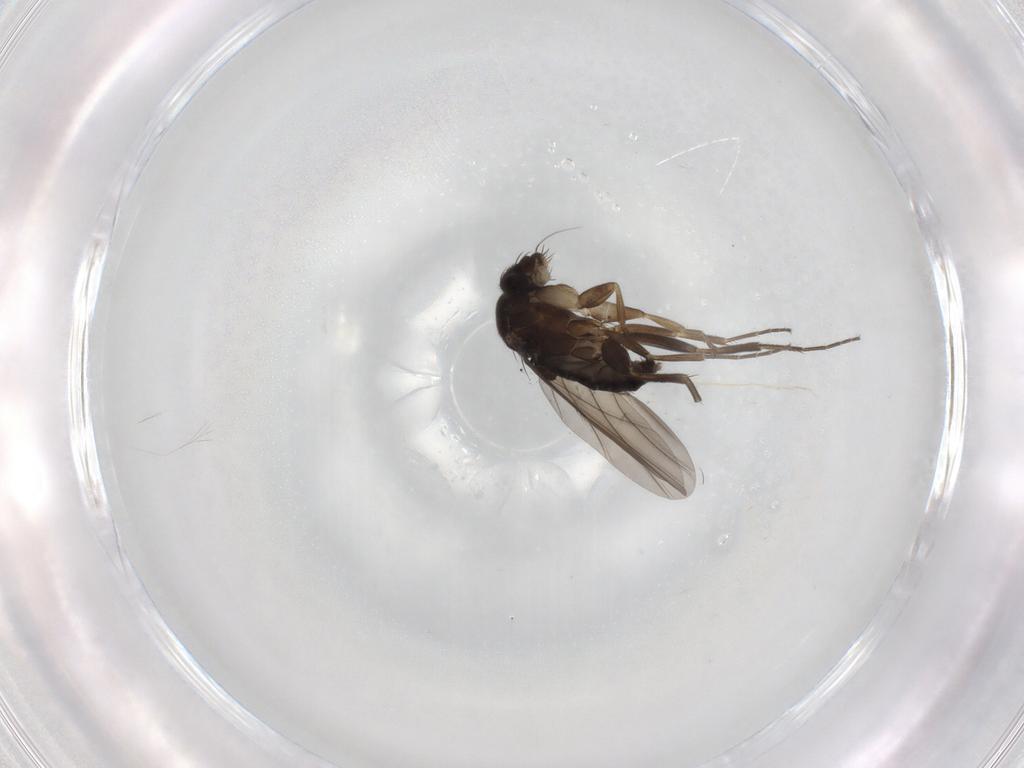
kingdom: Animalia
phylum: Arthropoda
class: Insecta
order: Diptera
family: Phoridae
